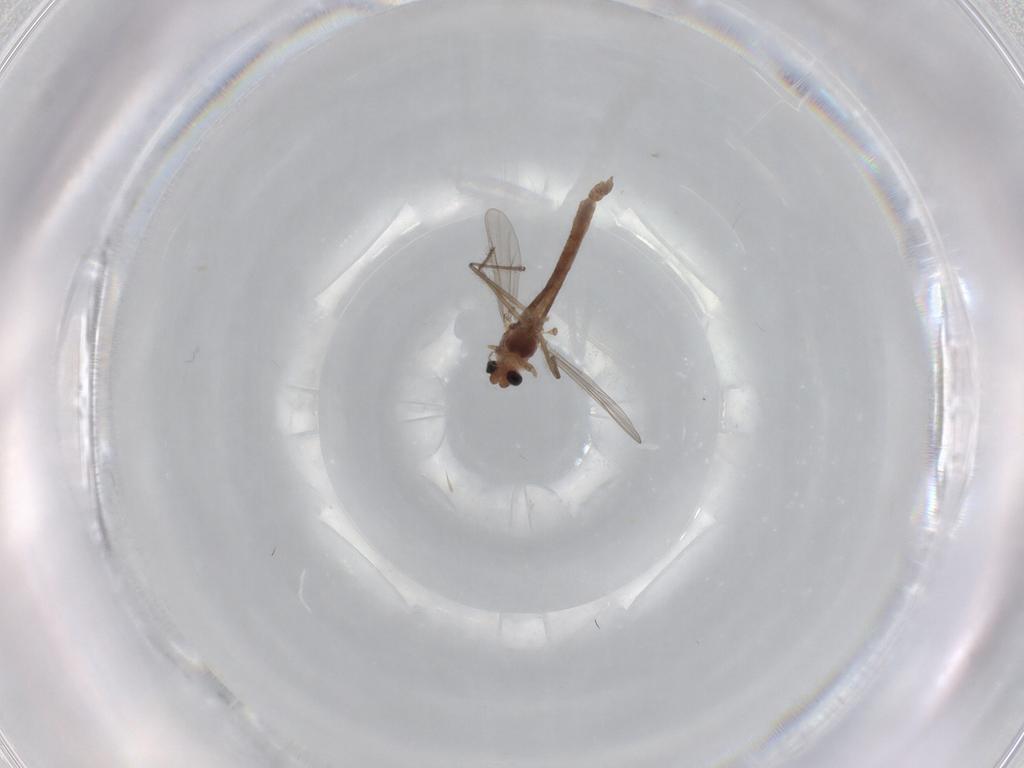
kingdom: Animalia
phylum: Arthropoda
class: Insecta
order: Diptera
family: Chironomidae
